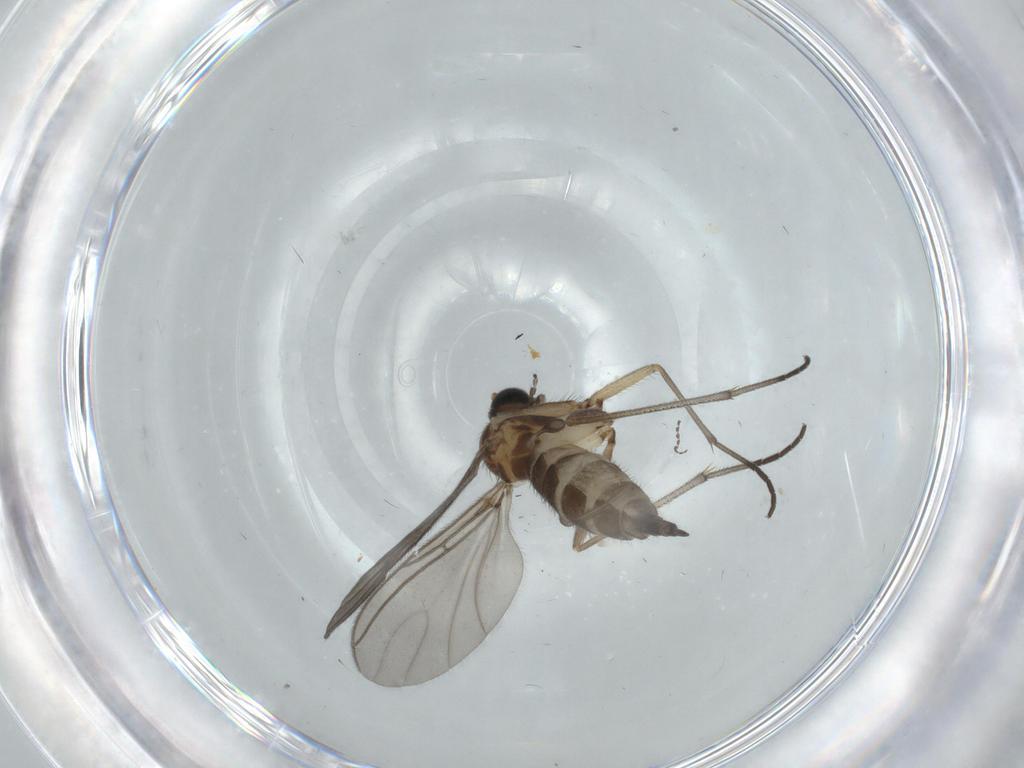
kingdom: Animalia
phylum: Arthropoda
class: Insecta
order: Diptera
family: Sciaridae
